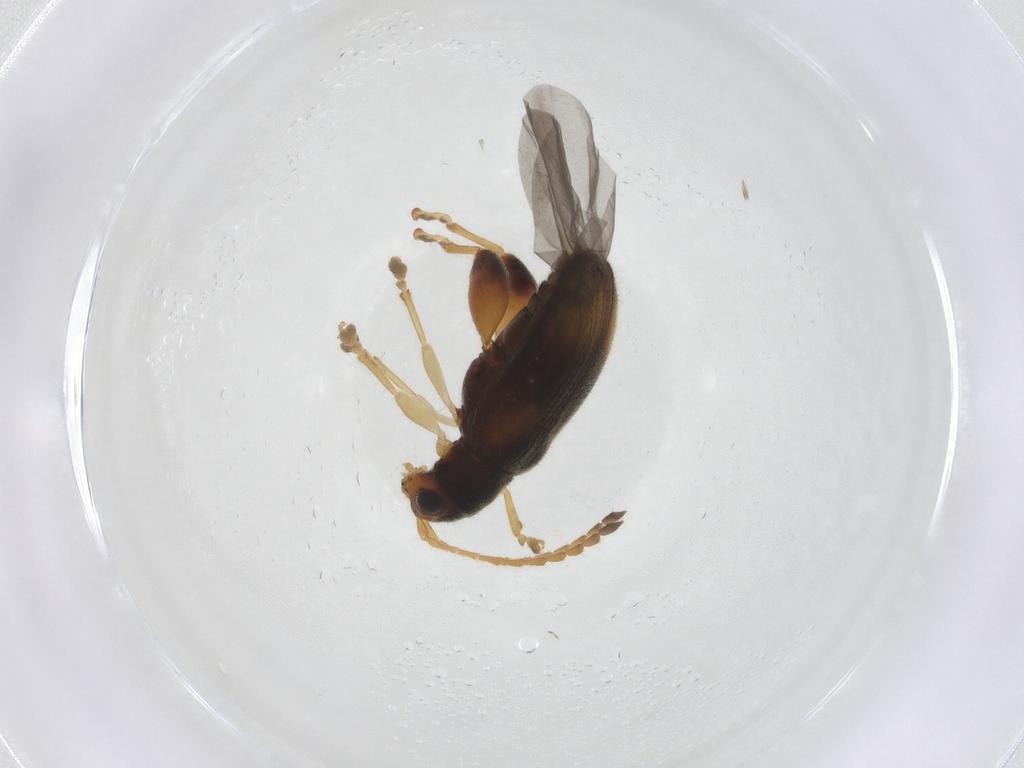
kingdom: Animalia
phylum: Arthropoda
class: Insecta
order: Coleoptera
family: Chrysomelidae
